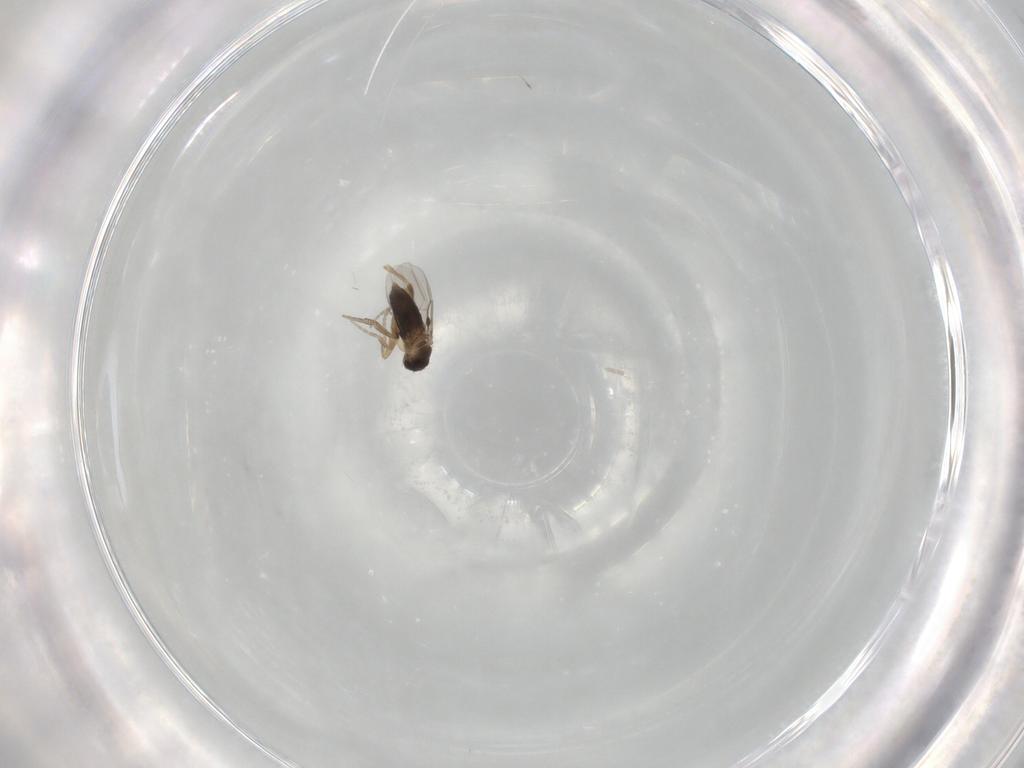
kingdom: Animalia
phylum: Arthropoda
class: Insecta
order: Diptera
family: Phoridae
